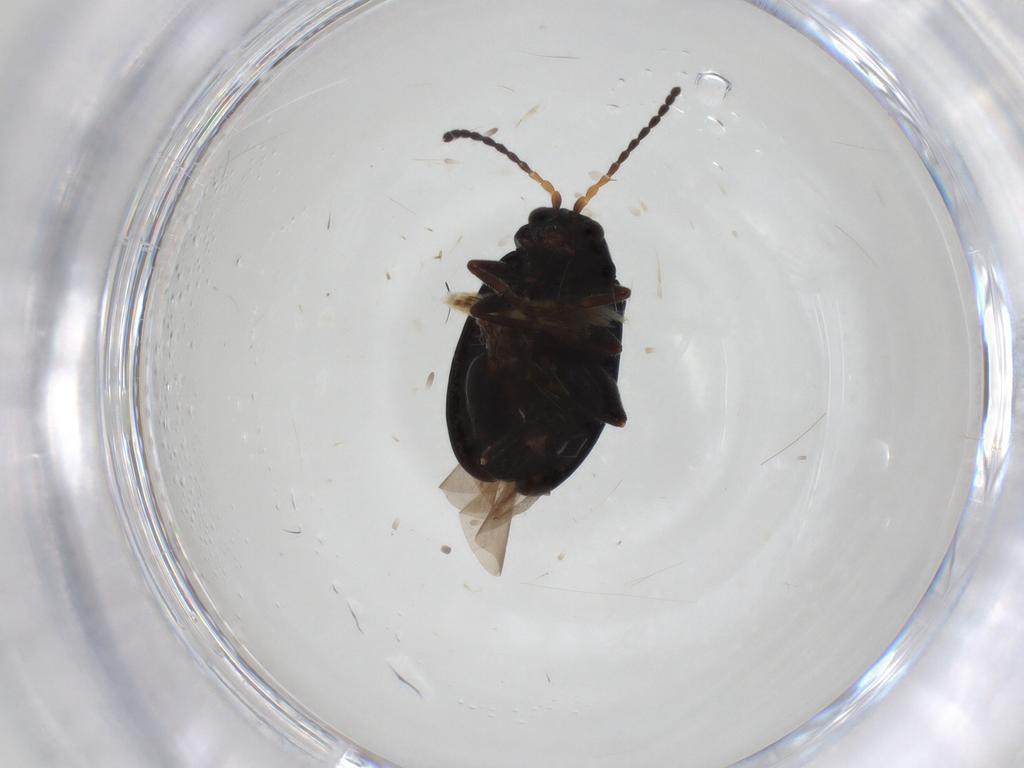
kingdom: Animalia
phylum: Arthropoda
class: Insecta
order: Coleoptera
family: Chrysomelidae
